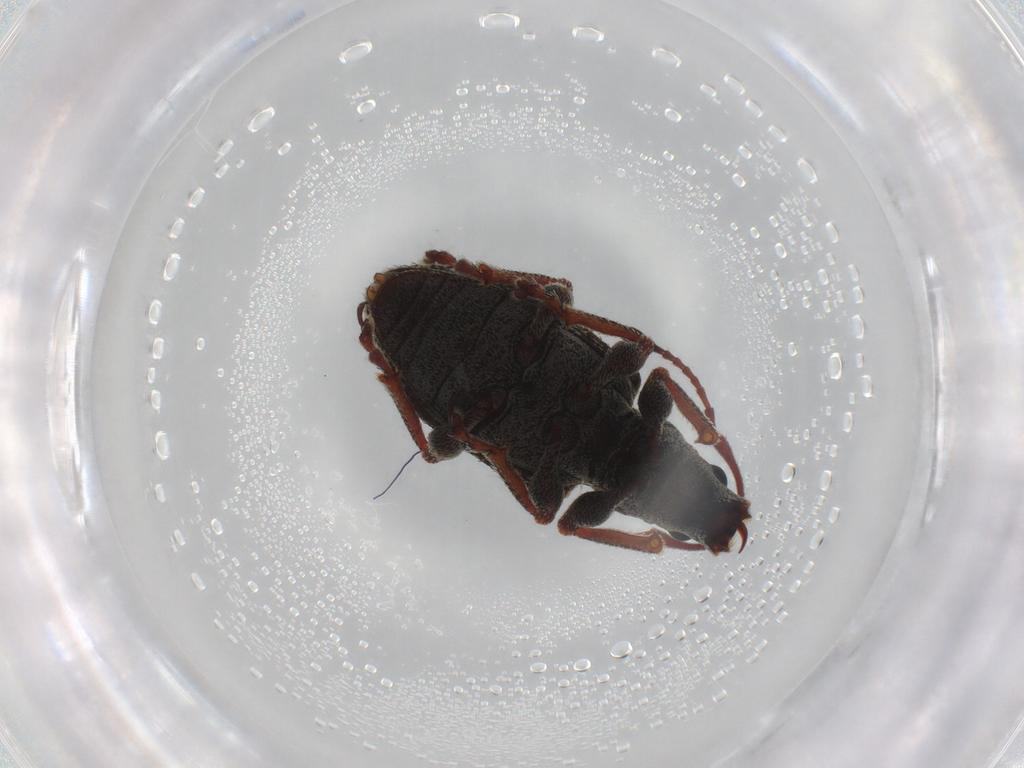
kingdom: Animalia
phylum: Arthropoda
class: Insecta
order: Coleoptera
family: Curculionidae
